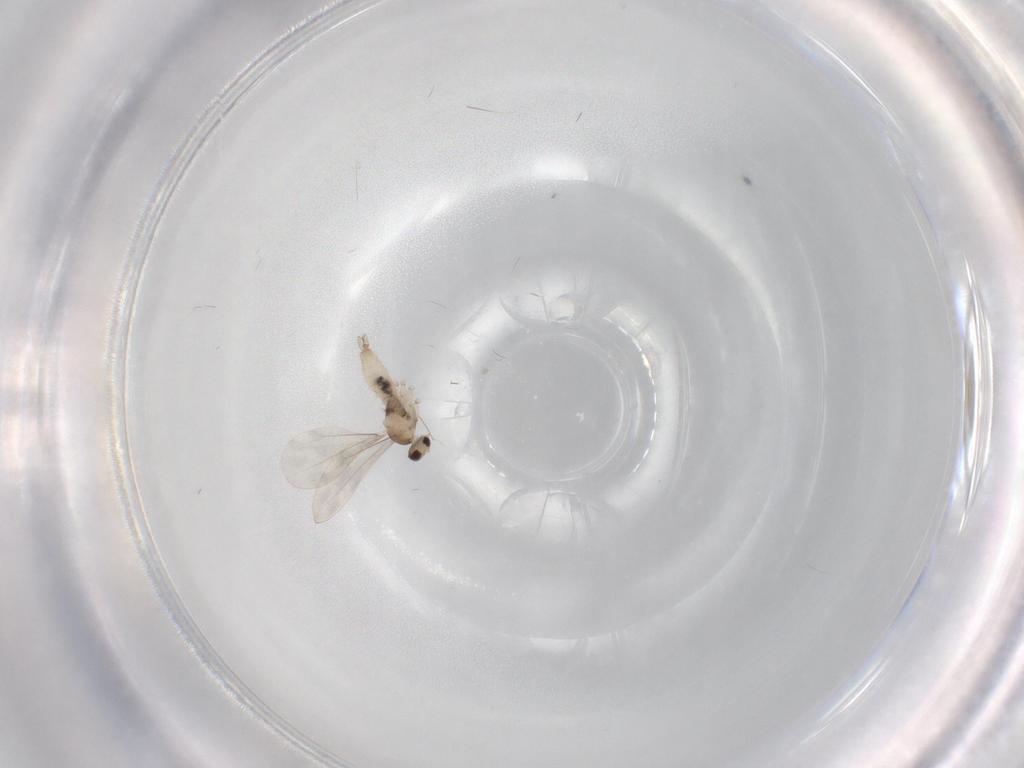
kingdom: Animalia
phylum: Arthropoda
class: Insecta
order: Diptera
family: Cecidomyiidae
